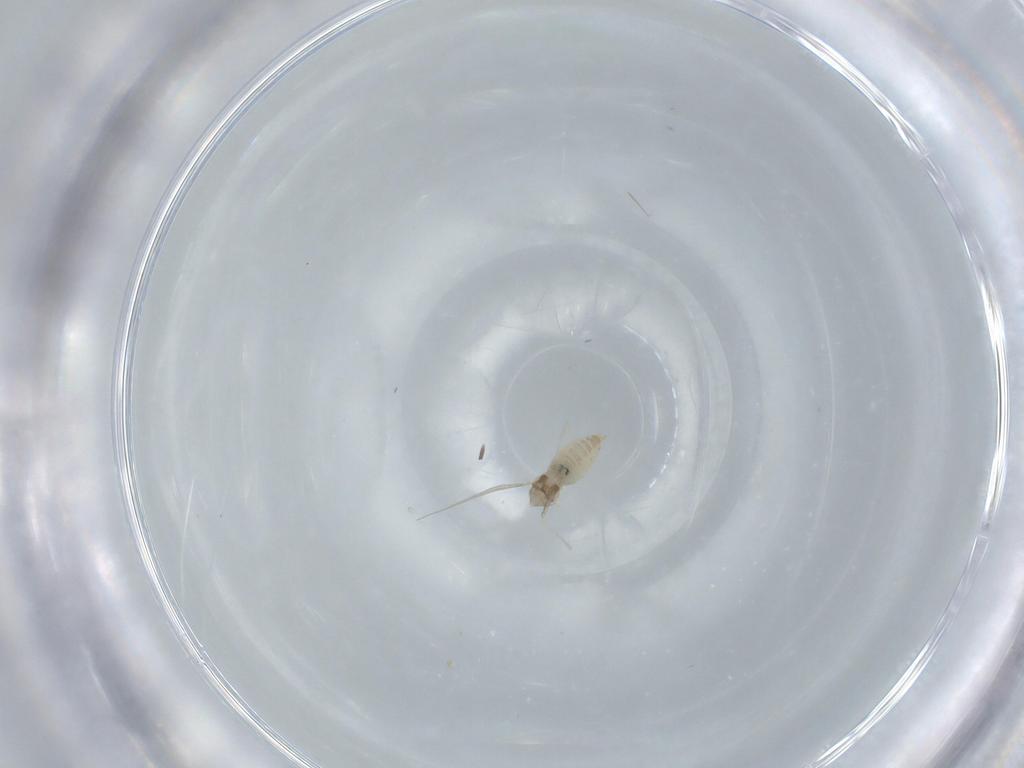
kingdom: Animalia
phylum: Arthropoda
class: Insecta
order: Diptera
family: Cecidomyiidae
